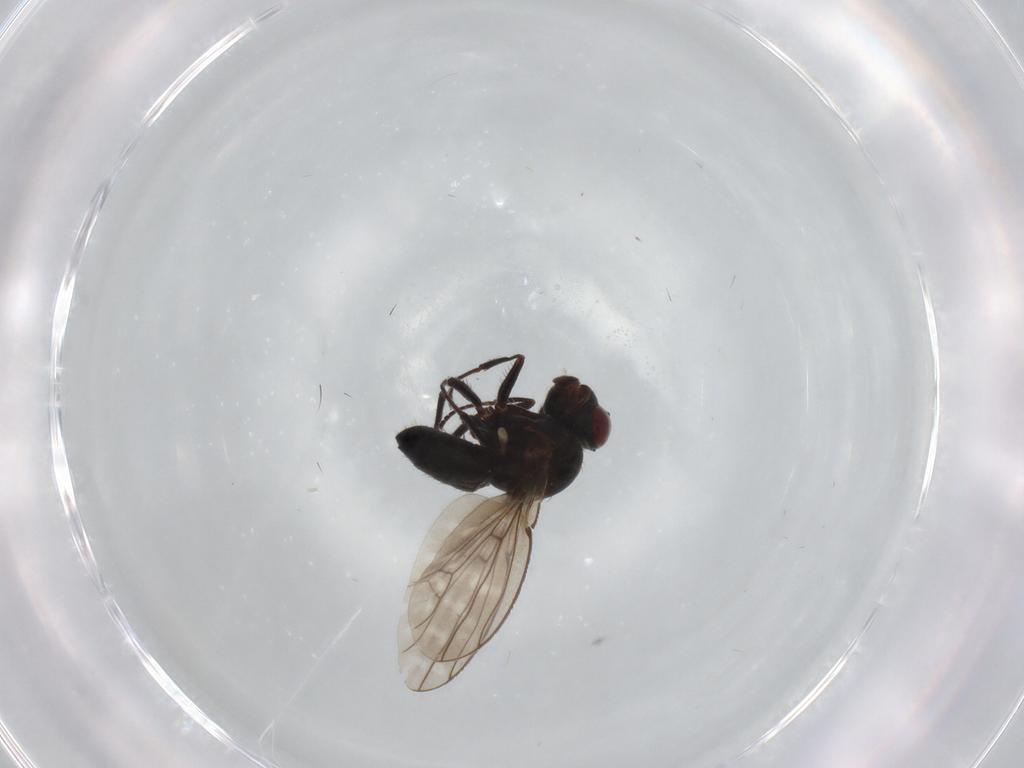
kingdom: Animalia
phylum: Arthropoda
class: Insecta
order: Diptera
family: Ephydridae
